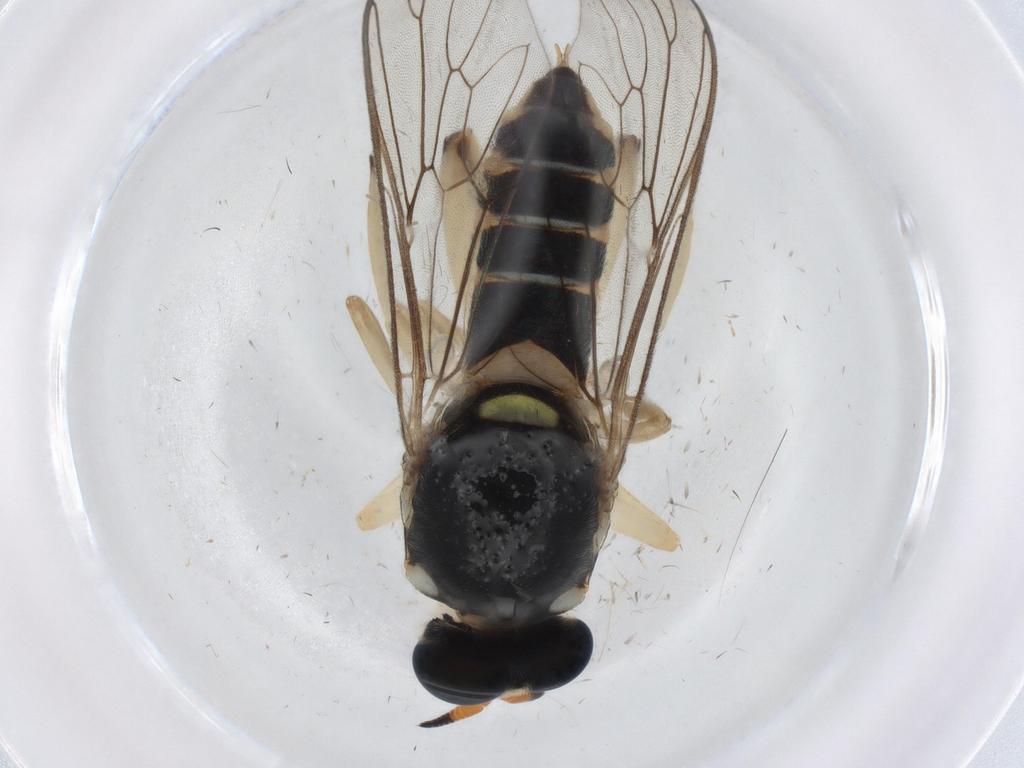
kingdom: Animalia
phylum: Arthropoda
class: Insecta
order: Diptera
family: Xylomyidae
